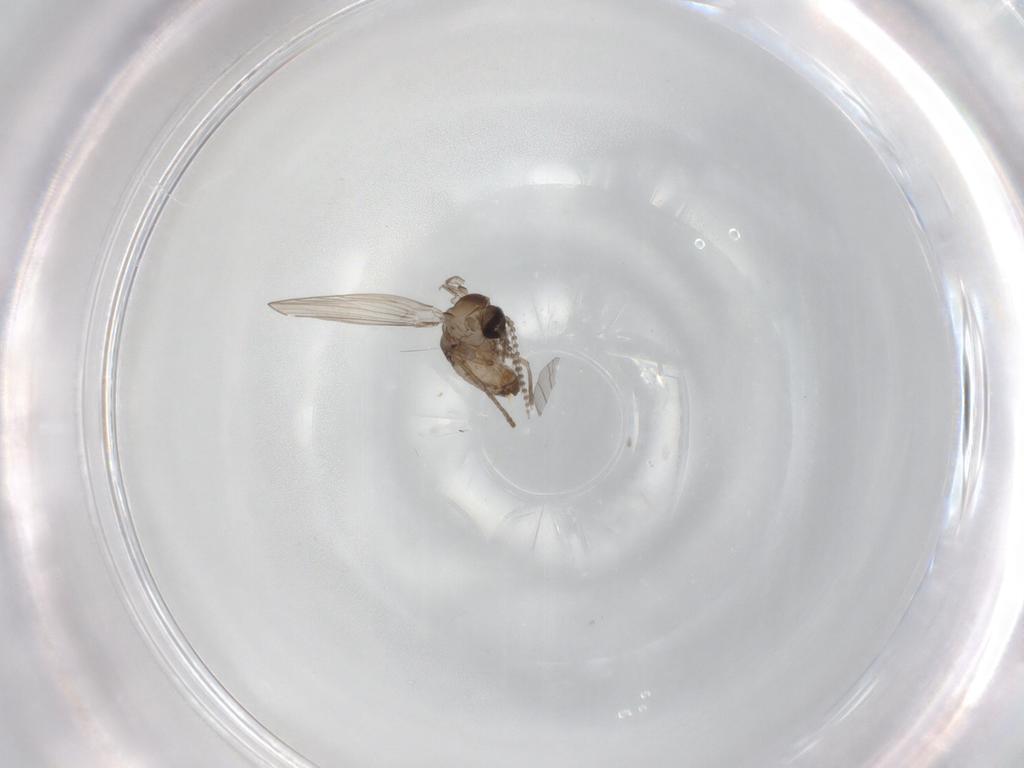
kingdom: Animalia
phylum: Arthropoda
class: Insecta
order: Diptera
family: Psychodidae
